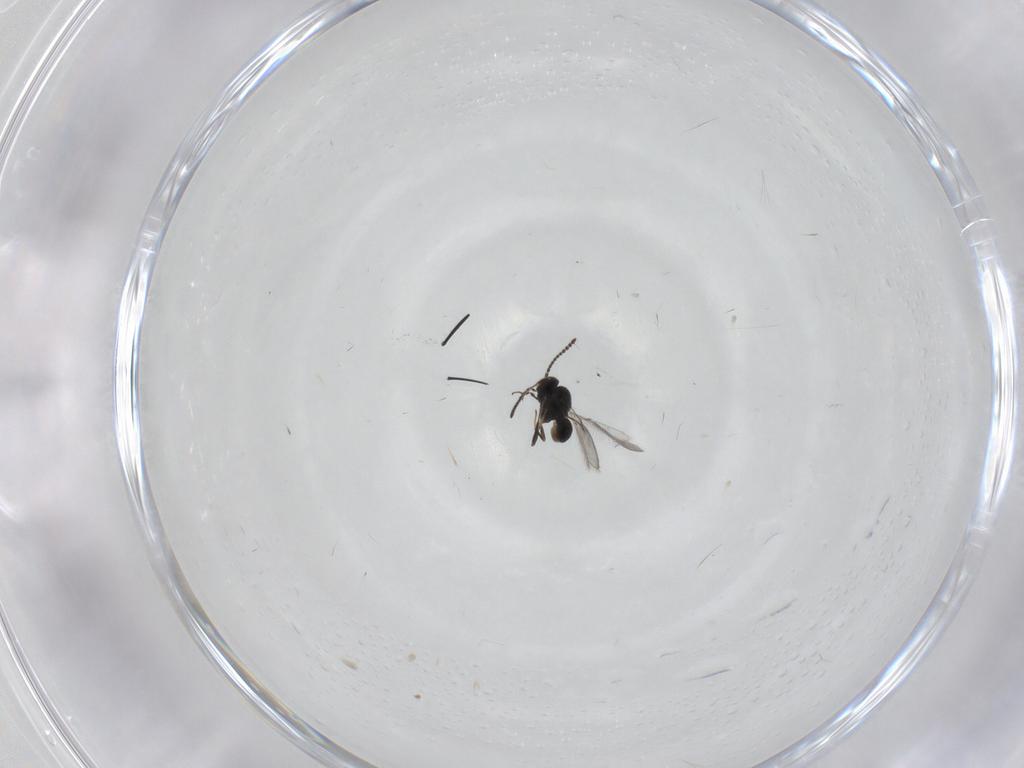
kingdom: Animalia
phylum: Arthropoda
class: Insecta
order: Hymenoptera
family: Scelionidae
